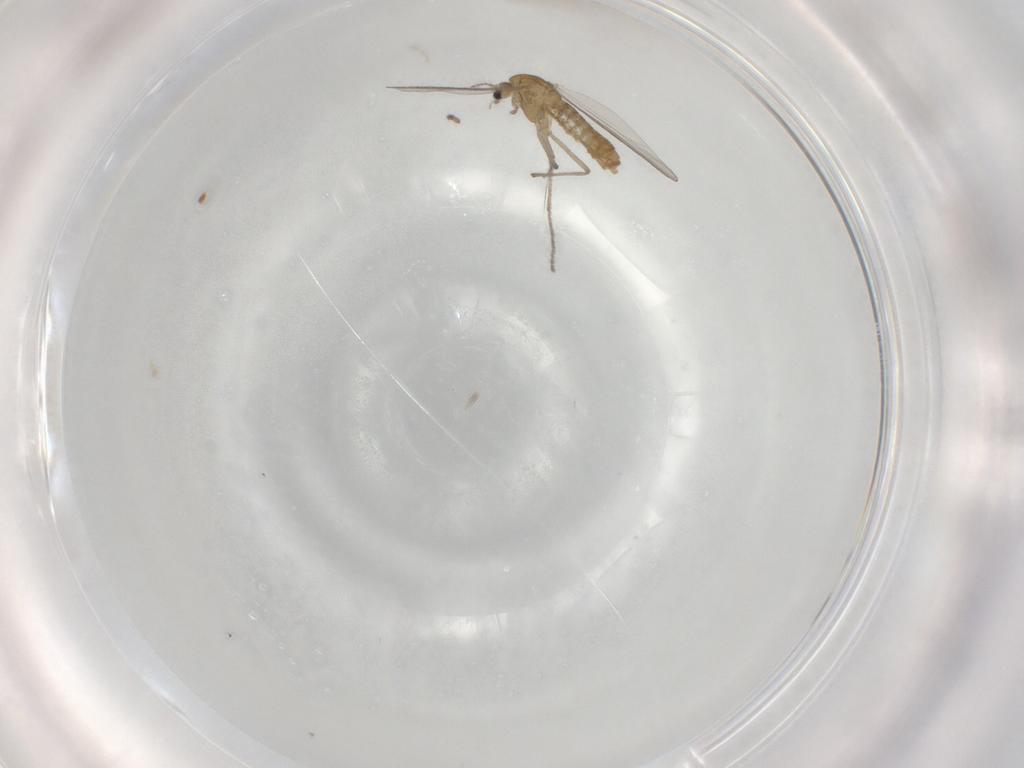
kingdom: Animalia
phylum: Arthropoda
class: Insecta
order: Diptera
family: Chironomidae
